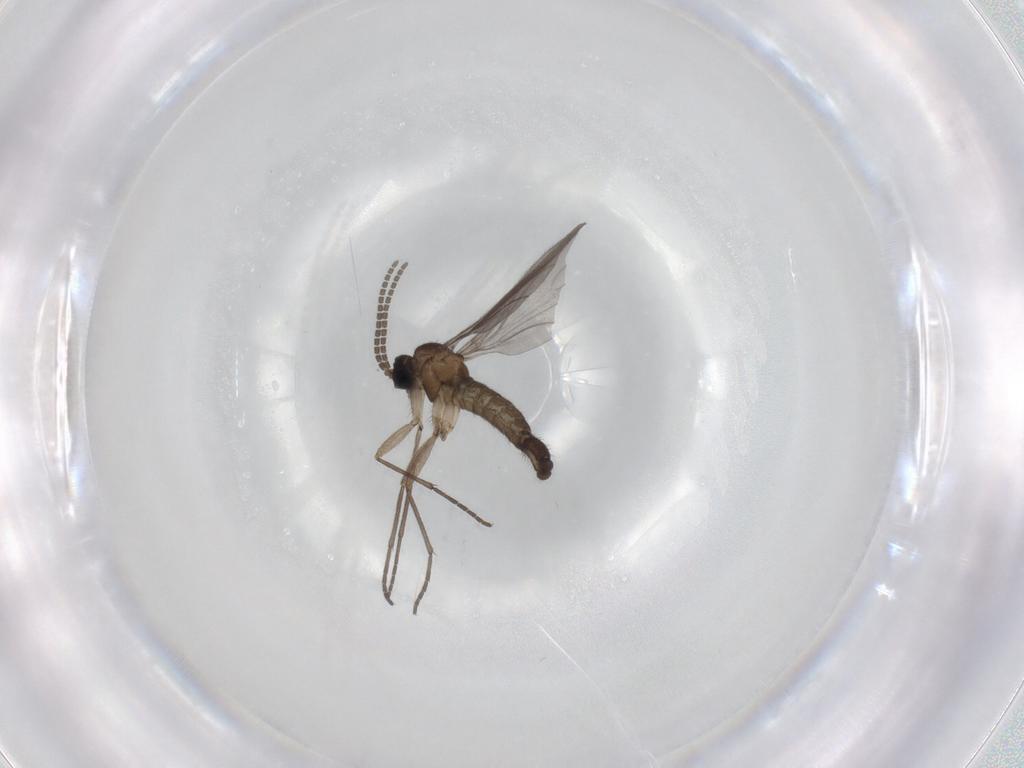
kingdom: Animalia
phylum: Arthropoda
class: Insecta
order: Diptera
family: Sciaridae
